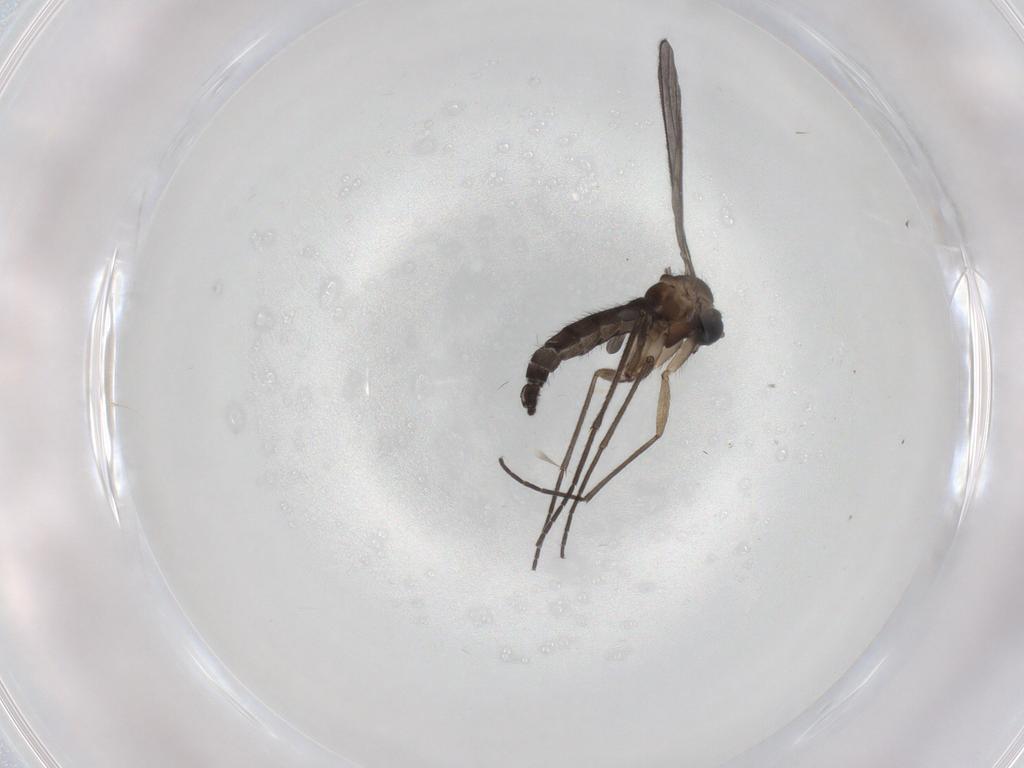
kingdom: Animalia
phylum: Arthropoda
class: Insecta
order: Diptera
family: Sciaridae
